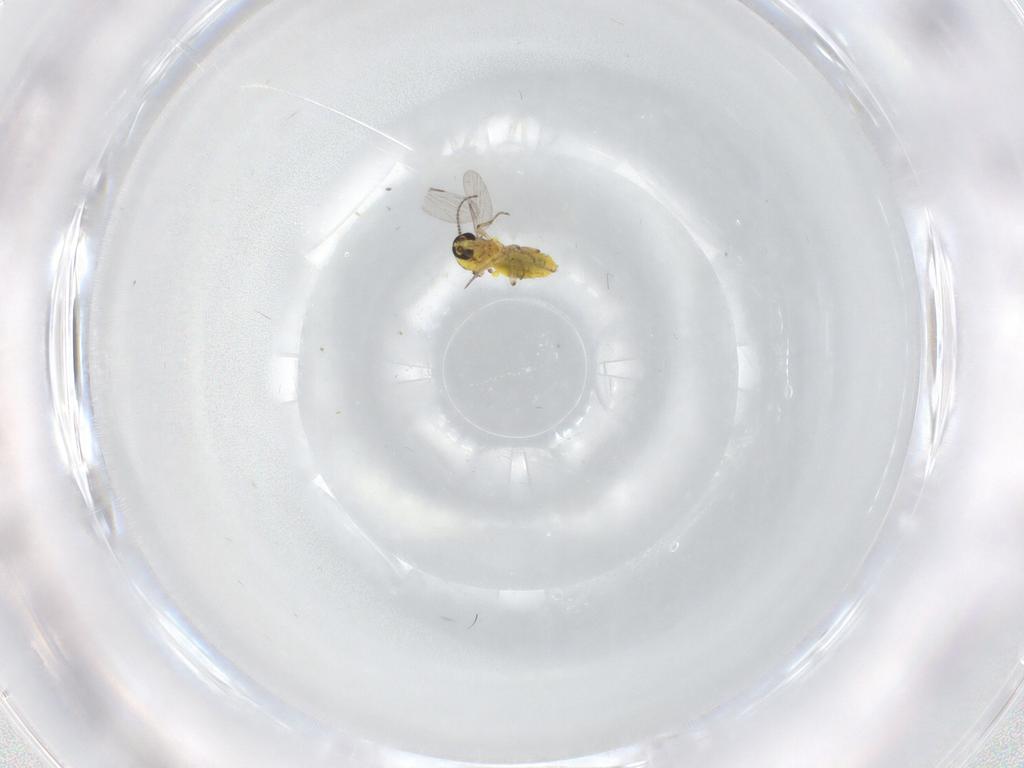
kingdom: Animalia
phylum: Arthropoda
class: Insecta
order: Diptera
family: Ceratopogonidae
